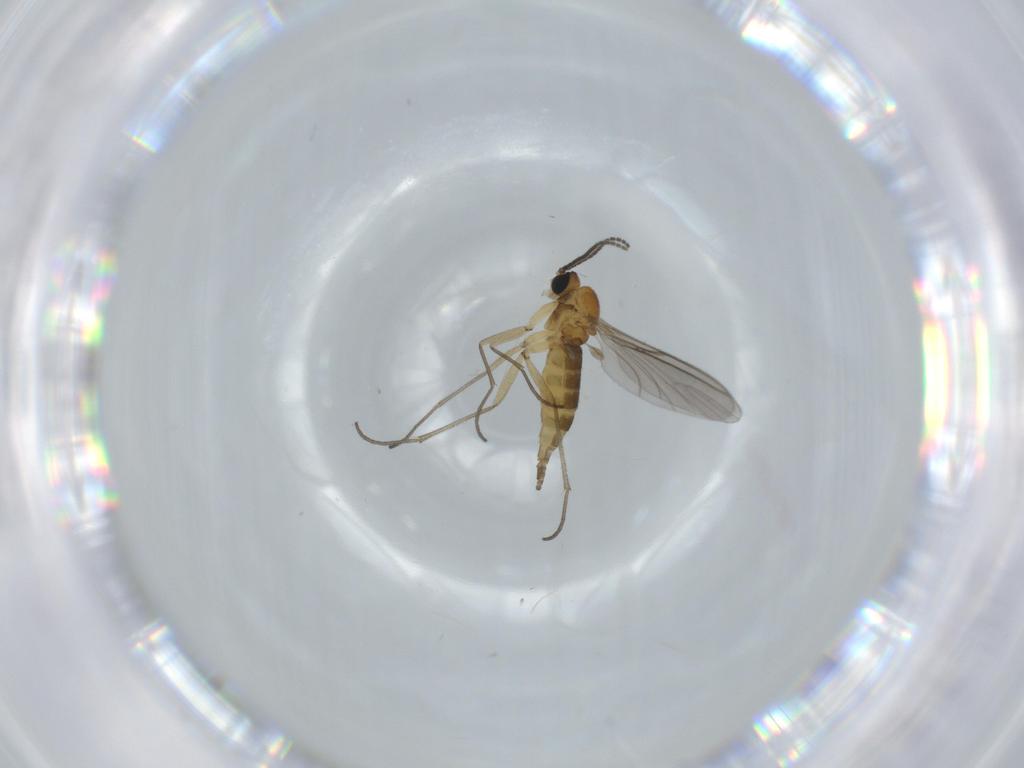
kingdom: Animalia
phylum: Arthropoda
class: Insecta
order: Diptera
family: Sciaridae
